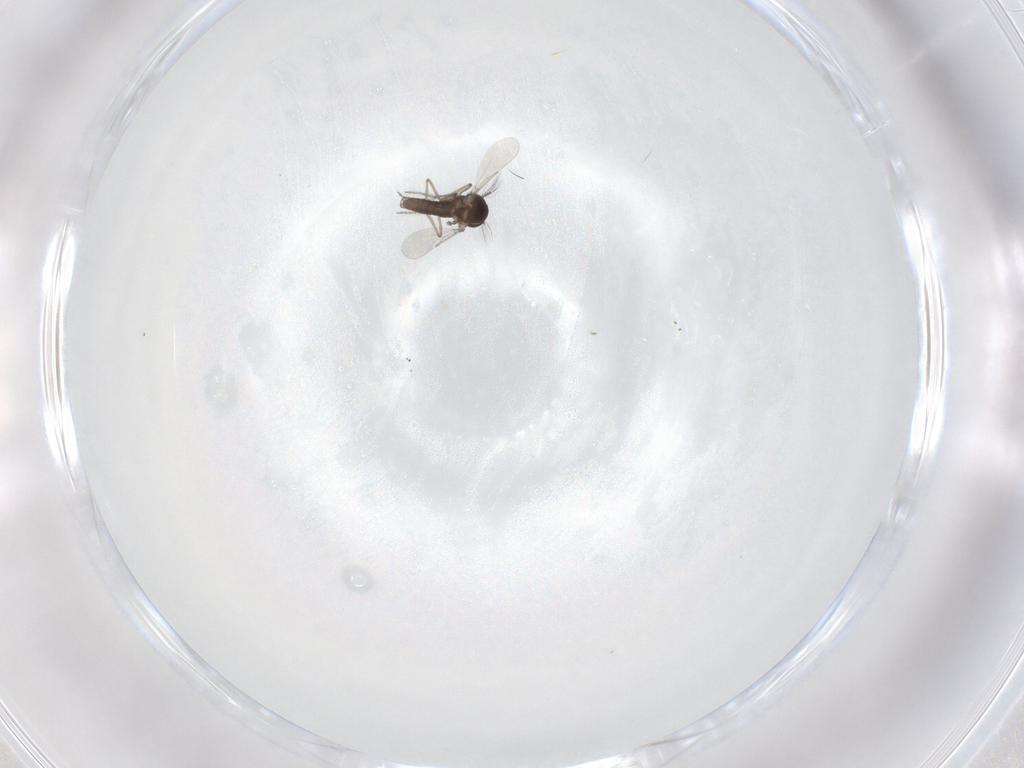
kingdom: Animalia
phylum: Arthropoda
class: Insecta
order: Diptera
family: Ceratopogonidae
